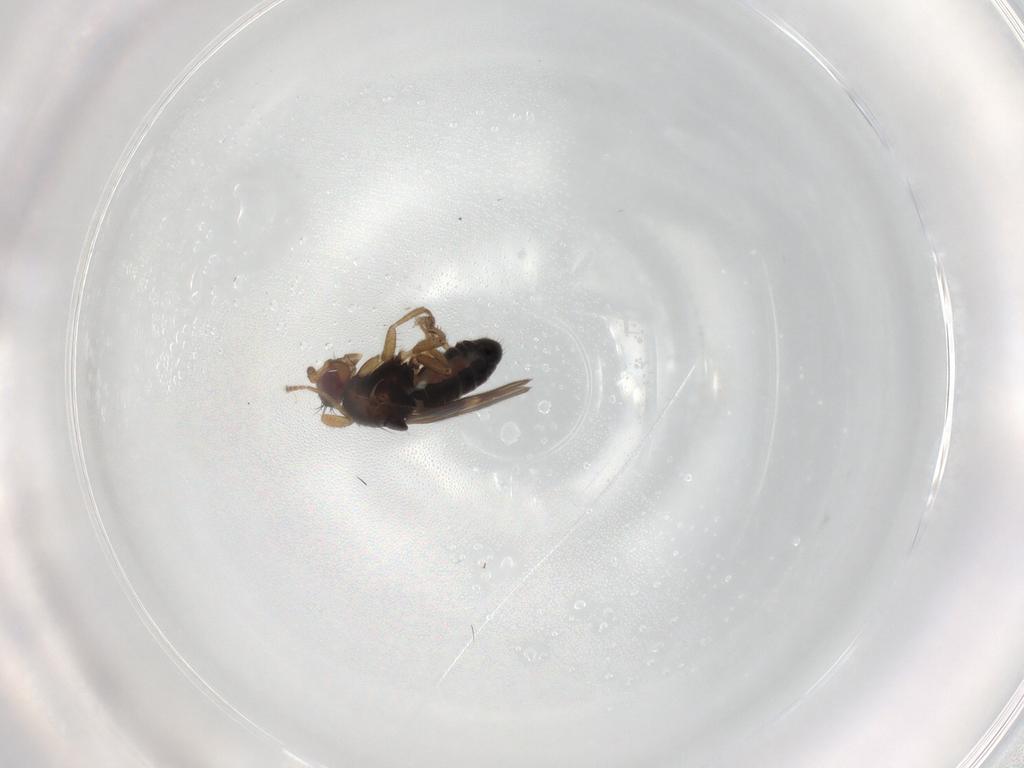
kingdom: Animalia
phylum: Arthropoda
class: Insecta
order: Diptera
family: Sphaeroceridae
